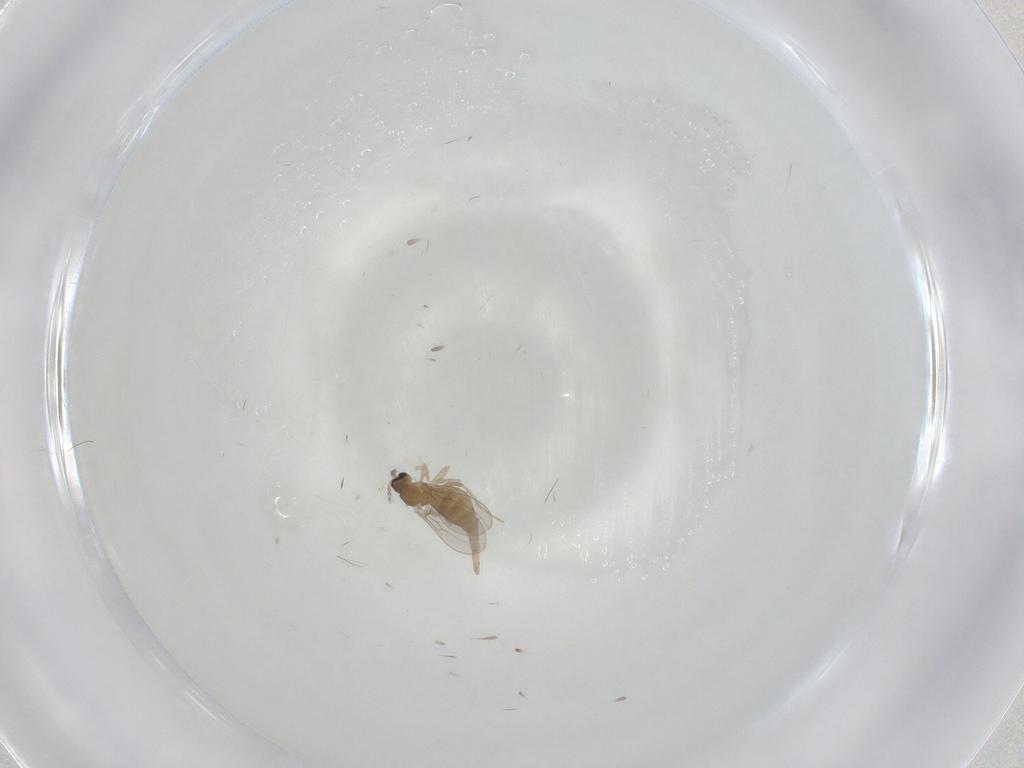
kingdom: Animalia
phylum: Arthropoda
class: Insecta
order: Diptera
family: Cecidomyiidae
